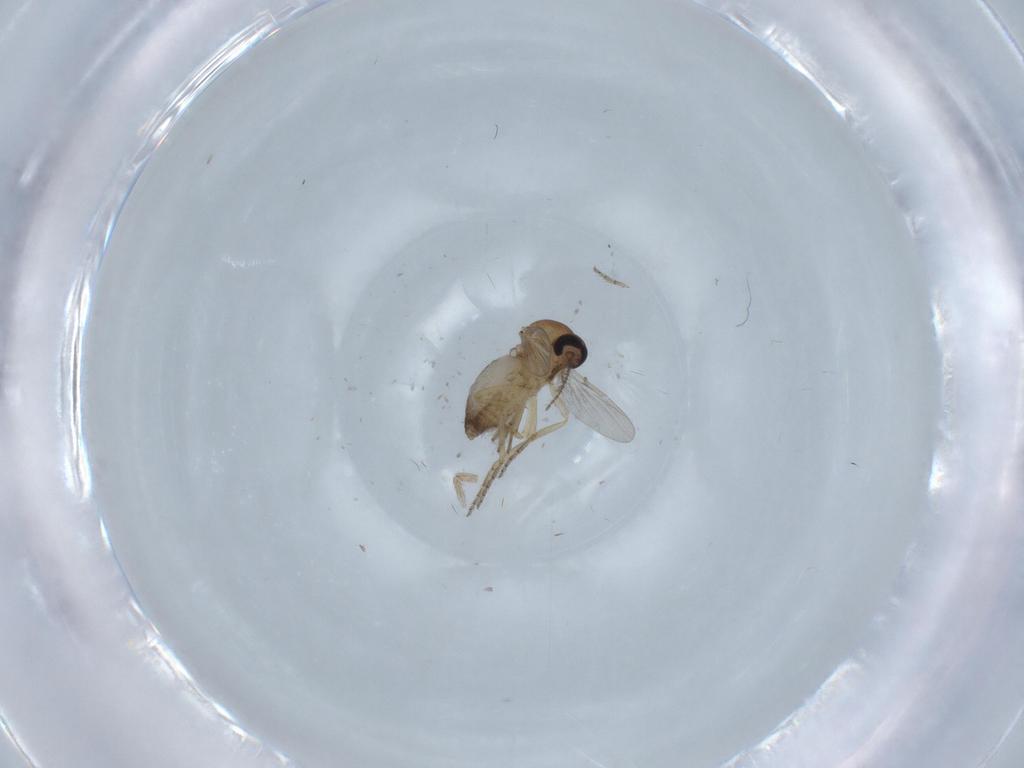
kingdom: Animalia
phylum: Arthropoda
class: Insecta
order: Diptera
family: Ceratopogonidae
